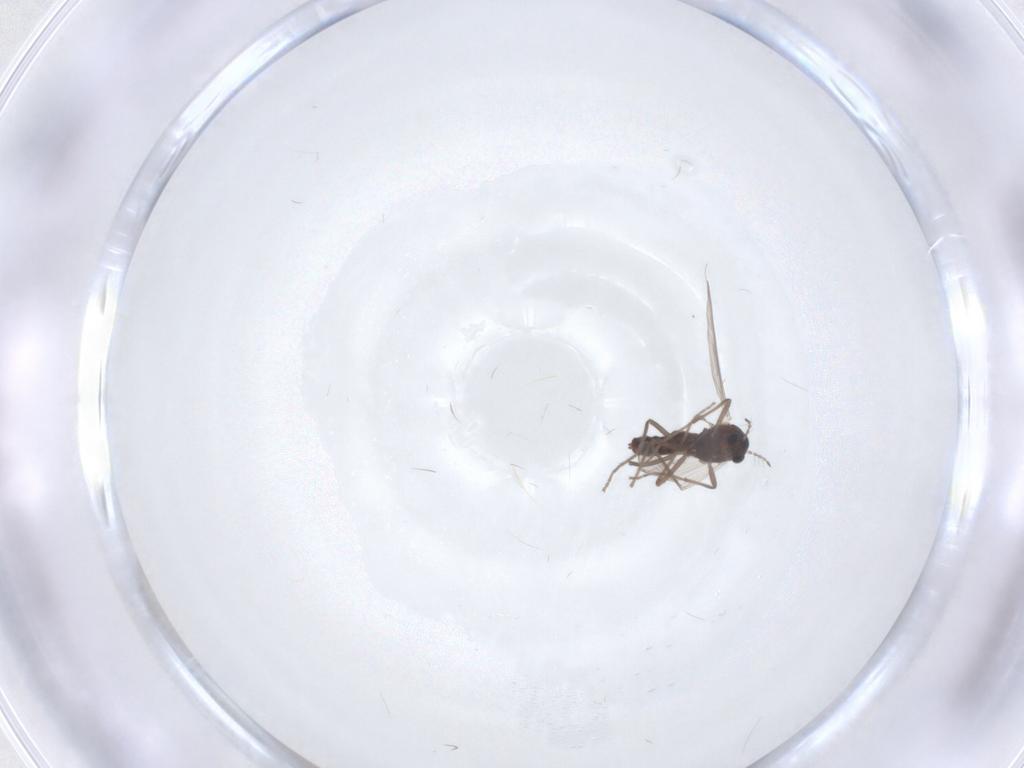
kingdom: Animalia
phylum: Arthropoda
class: Insecta
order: Diptera
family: Chironomidae
